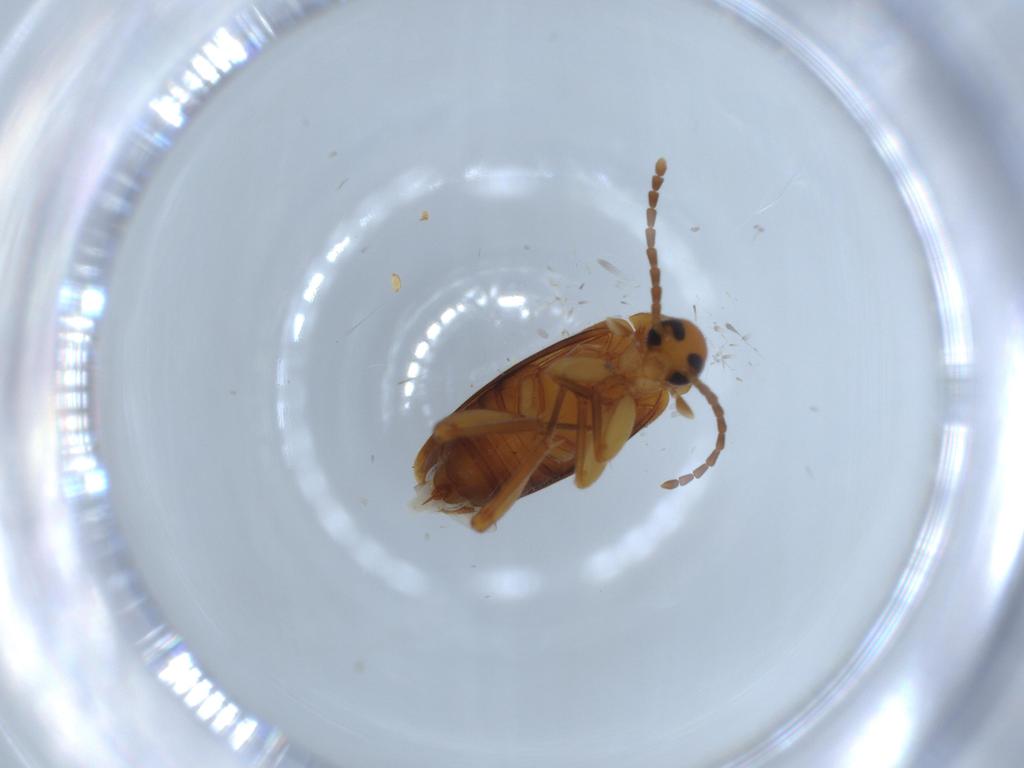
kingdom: Animalia
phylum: Arthropoda
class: Insecta
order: Coleoptera
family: Scraptiidae
